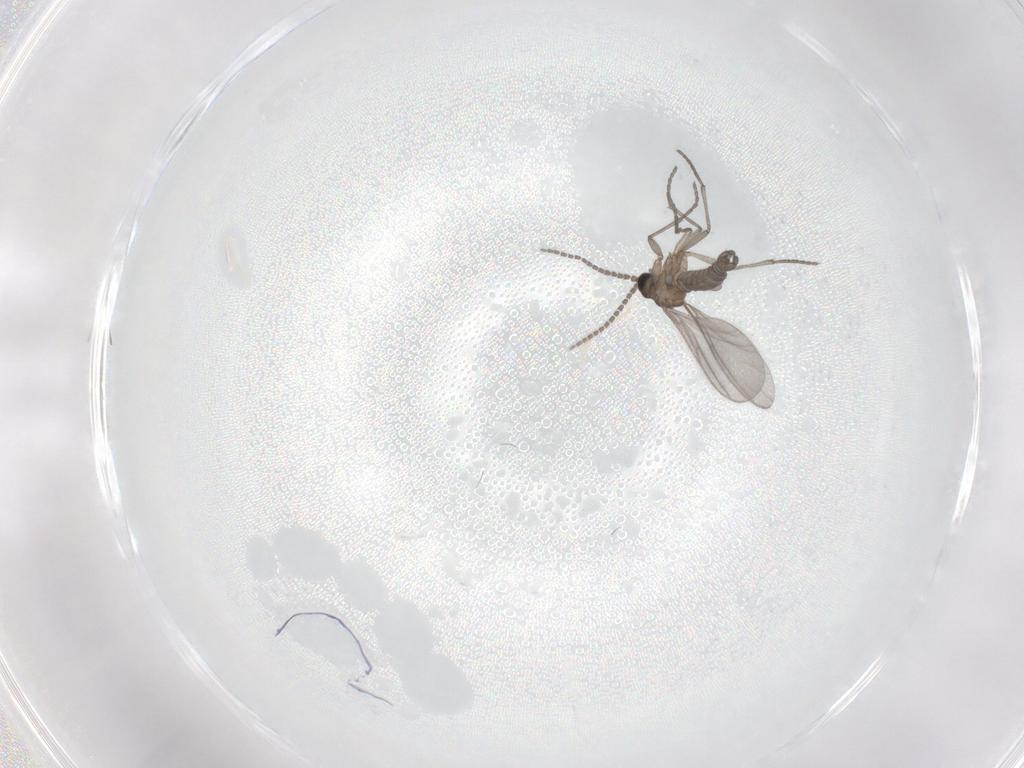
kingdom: Animalia
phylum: Arthropoda
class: Insecta
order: Diptera
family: Sciaridae
